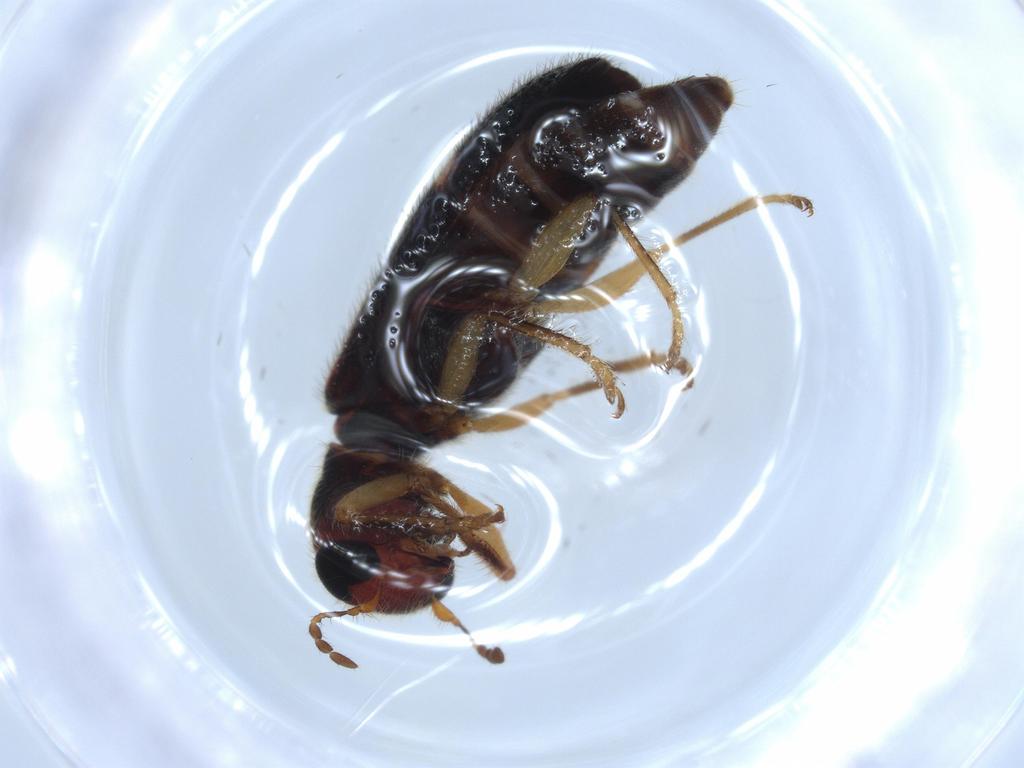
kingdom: Animalia
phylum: Arthropoda
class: Insecta
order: Coleoptera
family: Cleridae
